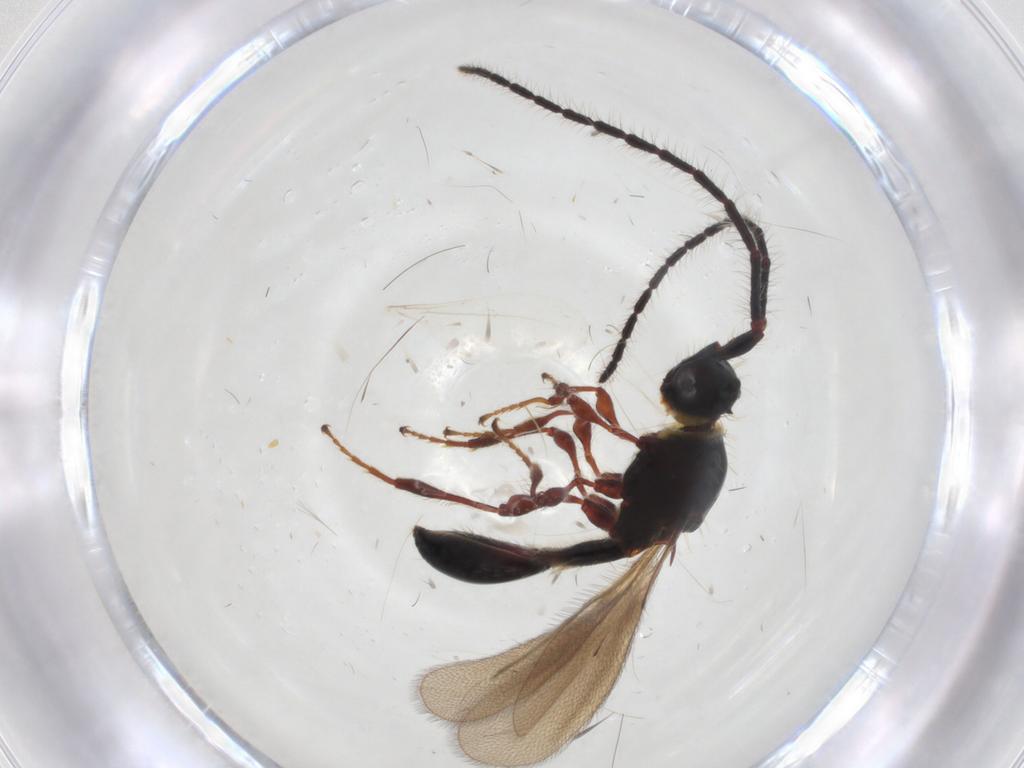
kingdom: Animalia
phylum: Arthropoda
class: Insecta
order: Hymenoptera
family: Diapriidae
